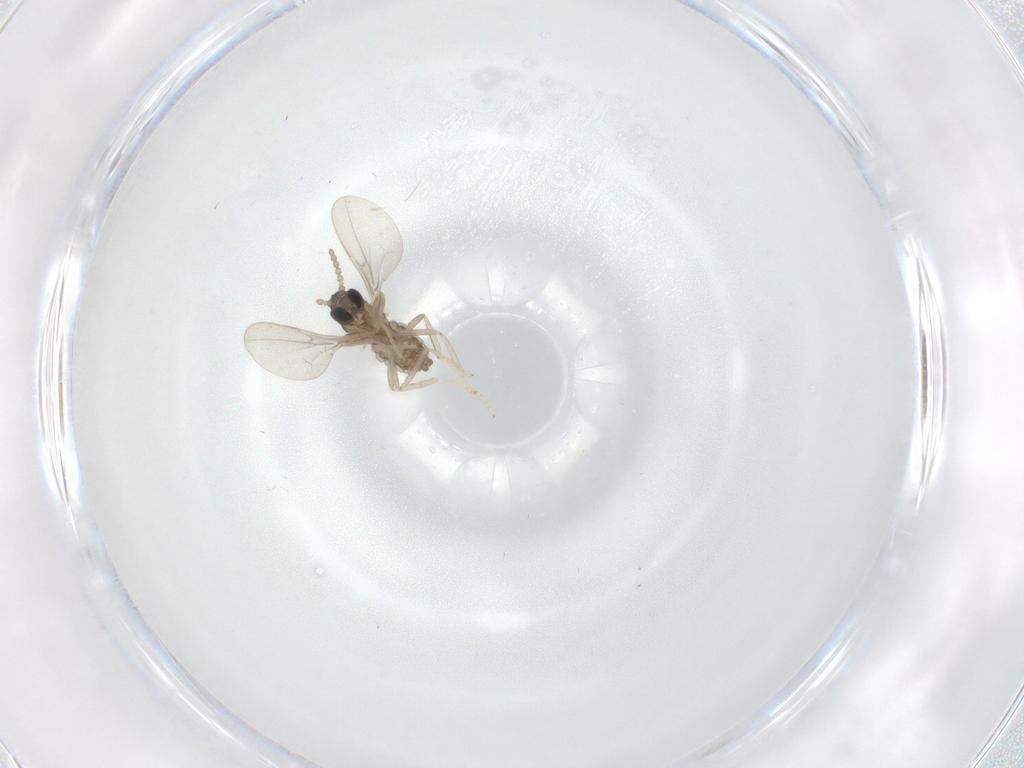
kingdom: Animalia
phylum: Arthropoda
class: Insecta
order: Diptera
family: Cecidomyiidae
